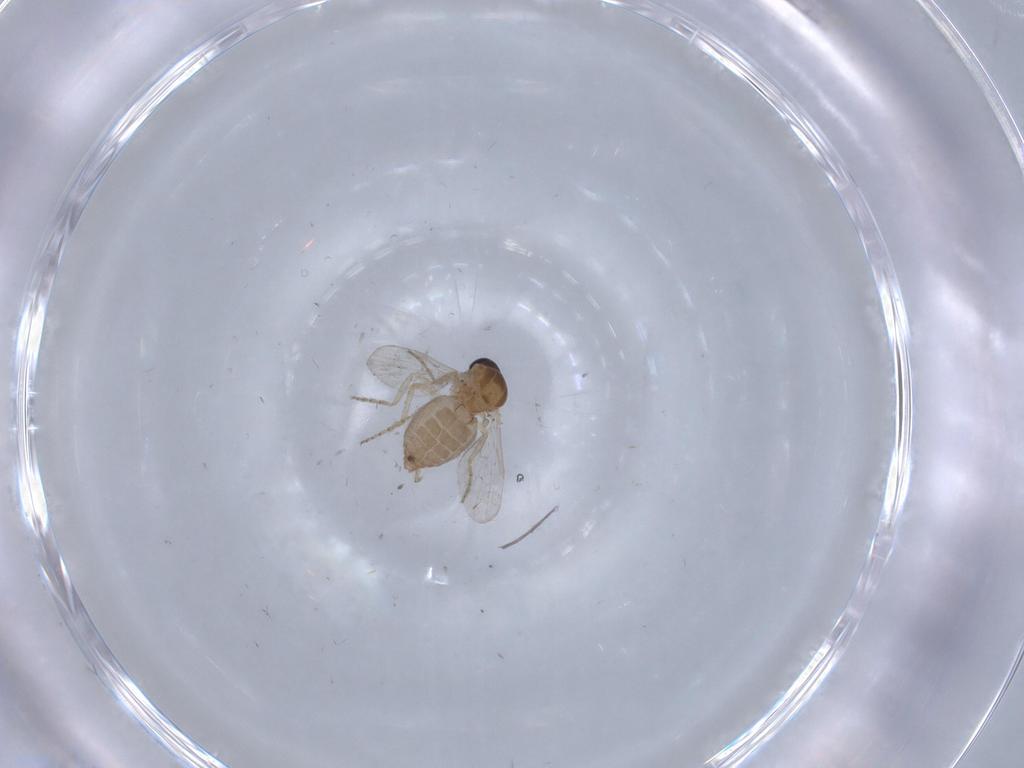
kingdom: Animalia
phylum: Arthropoda
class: Insecta
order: Diptera
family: Ceratopogonidae
